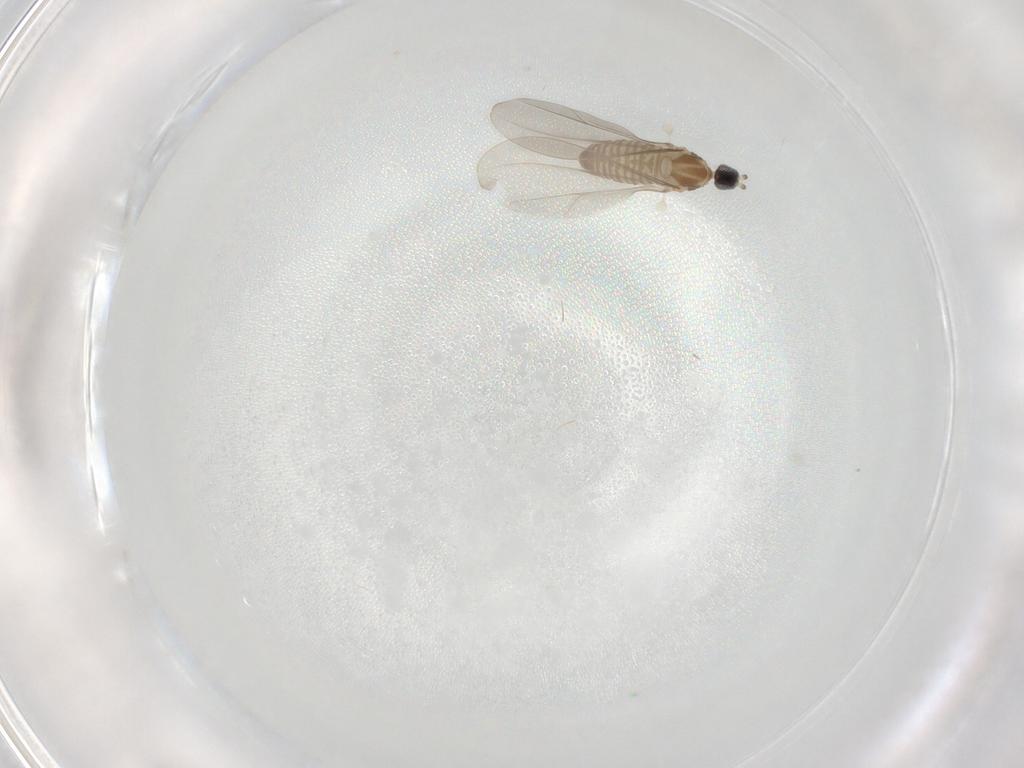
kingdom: Animalia
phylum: Arthropoda
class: Insecta
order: Diptera
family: Cecidomyiidae
